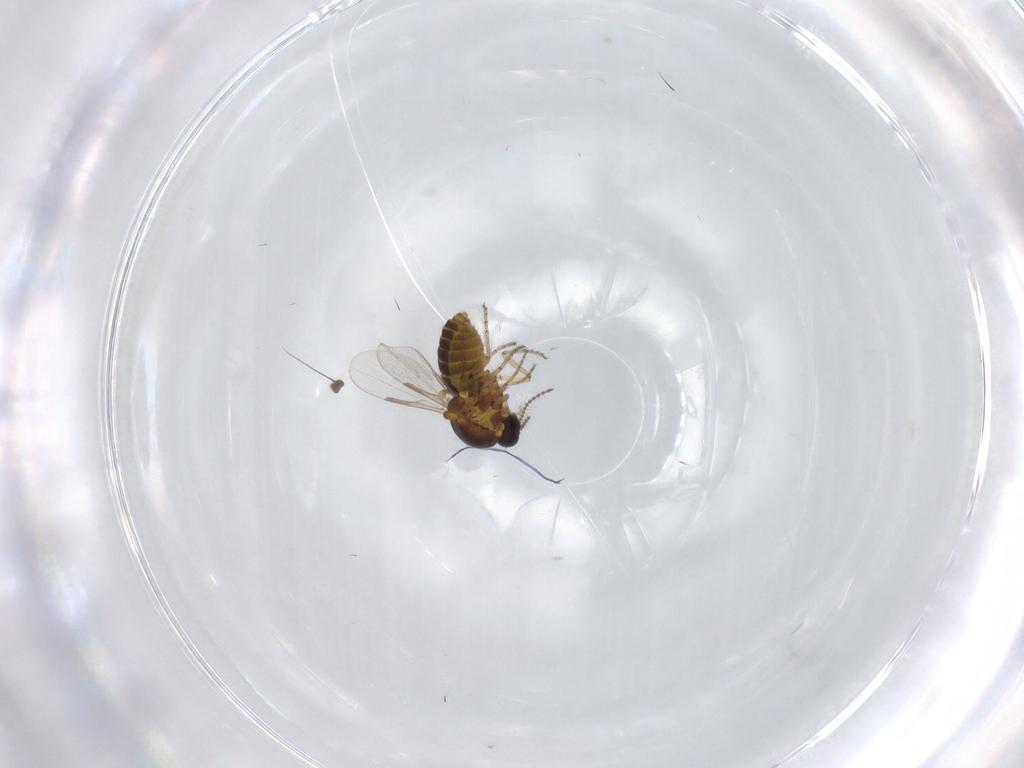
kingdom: Animalia
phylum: Arthropoda
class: Insecta
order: Diptera
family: Ceratopogonidae
